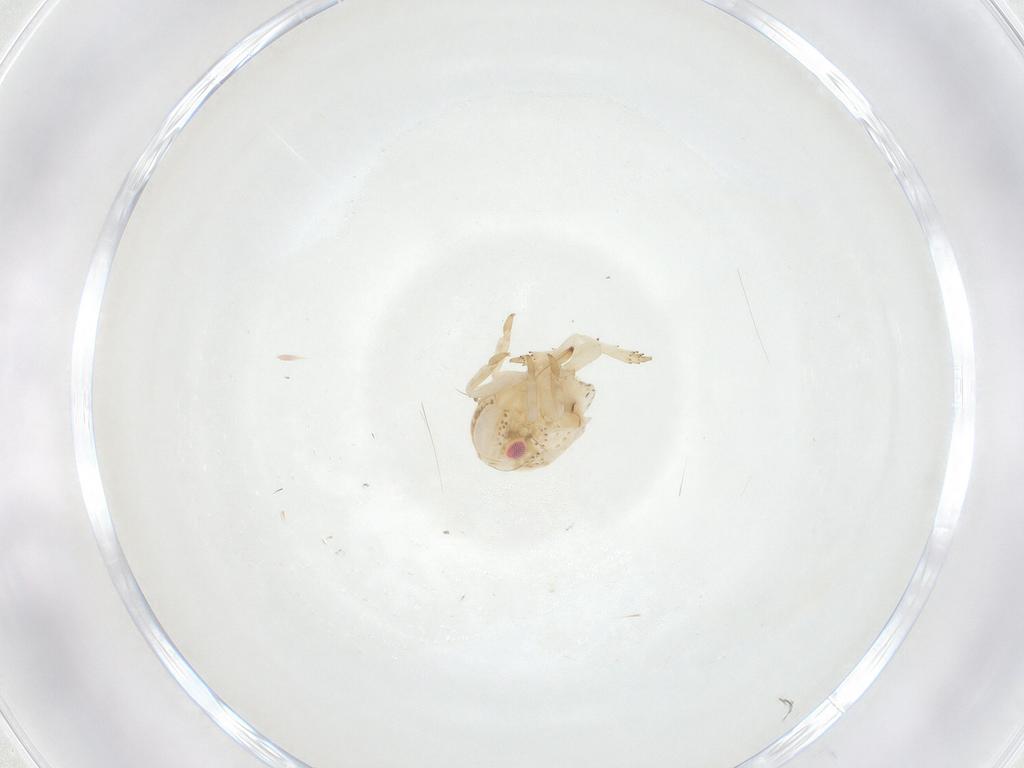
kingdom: Animalia
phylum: Arthropoda
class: Insecta
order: Hemiptera
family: Acanaloniidae
